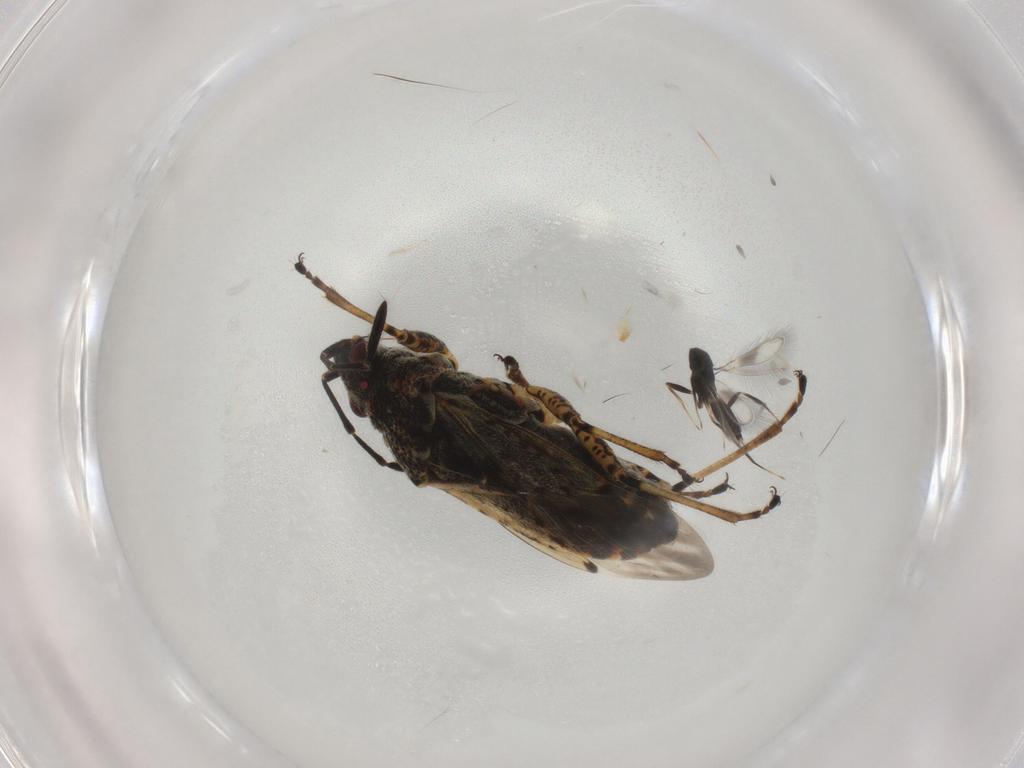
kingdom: Animalia
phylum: Arthropoda
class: Insecta
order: Hemiptera
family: Lygaeidae
